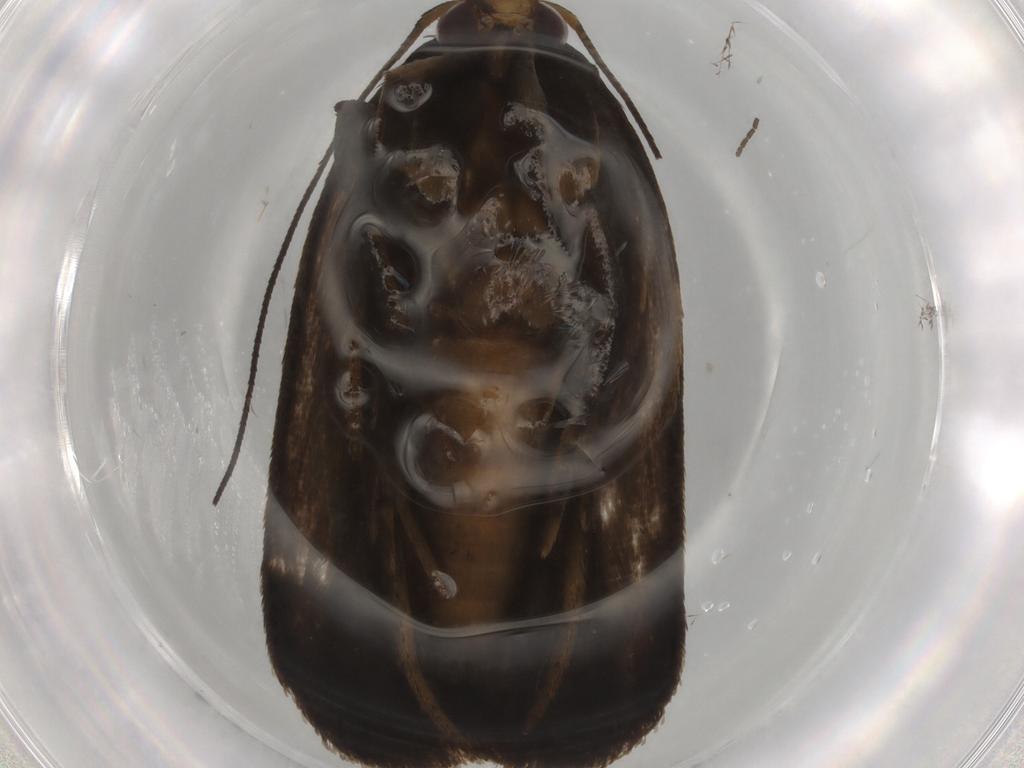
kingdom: Animalia
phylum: Arthropoda
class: Insecta
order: Lepidoptera
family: Gelechiidae
